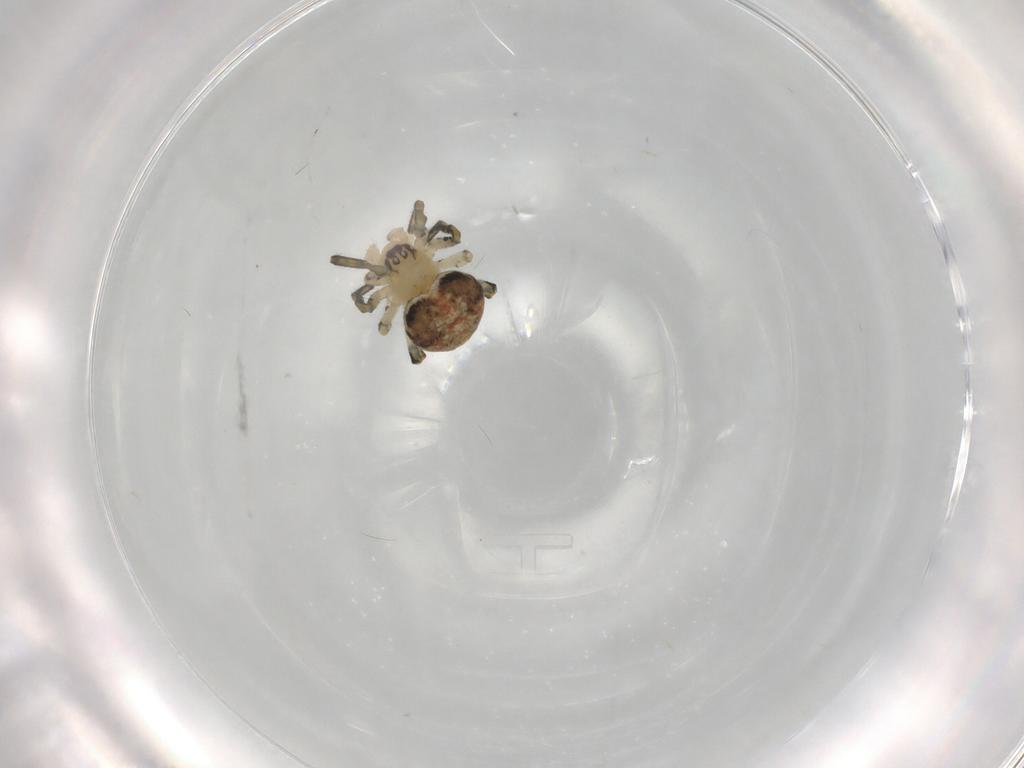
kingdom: Animalia
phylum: Arthropoda
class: Arachnida
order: Araneae
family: Theridiidae
